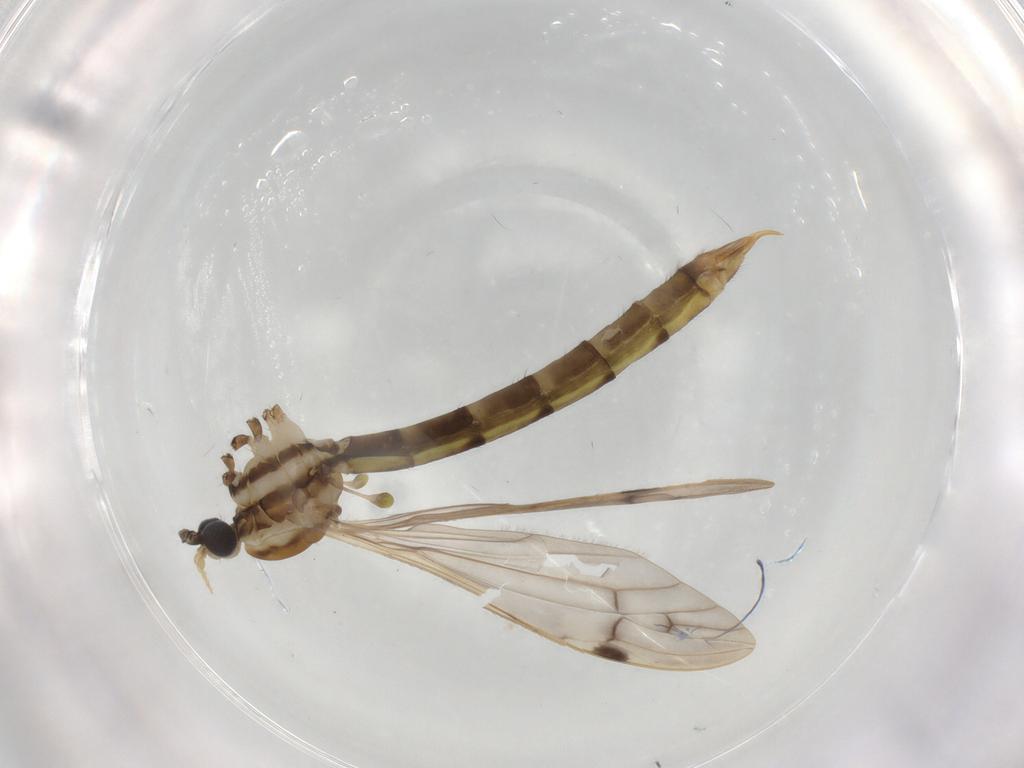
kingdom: Animalia
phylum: Arthropoda
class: Insecta
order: Diptera
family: Limoniidae
